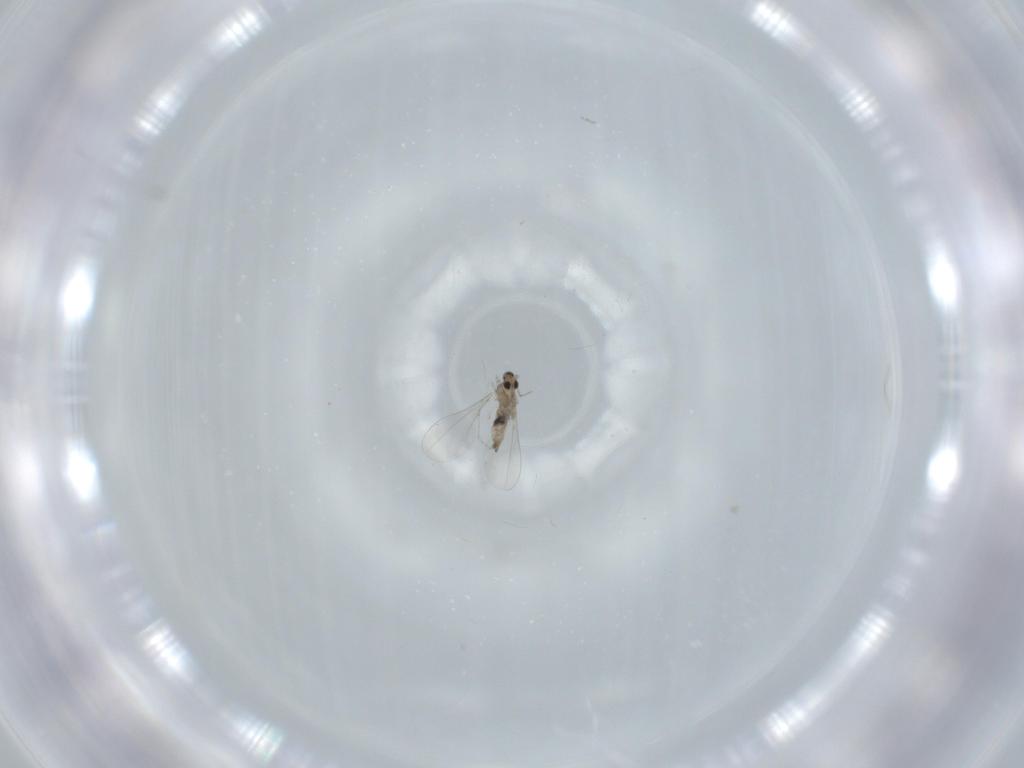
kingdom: Animalia
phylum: Arthropoda
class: Insecta
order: Diptera
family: Cecidomyiidae
